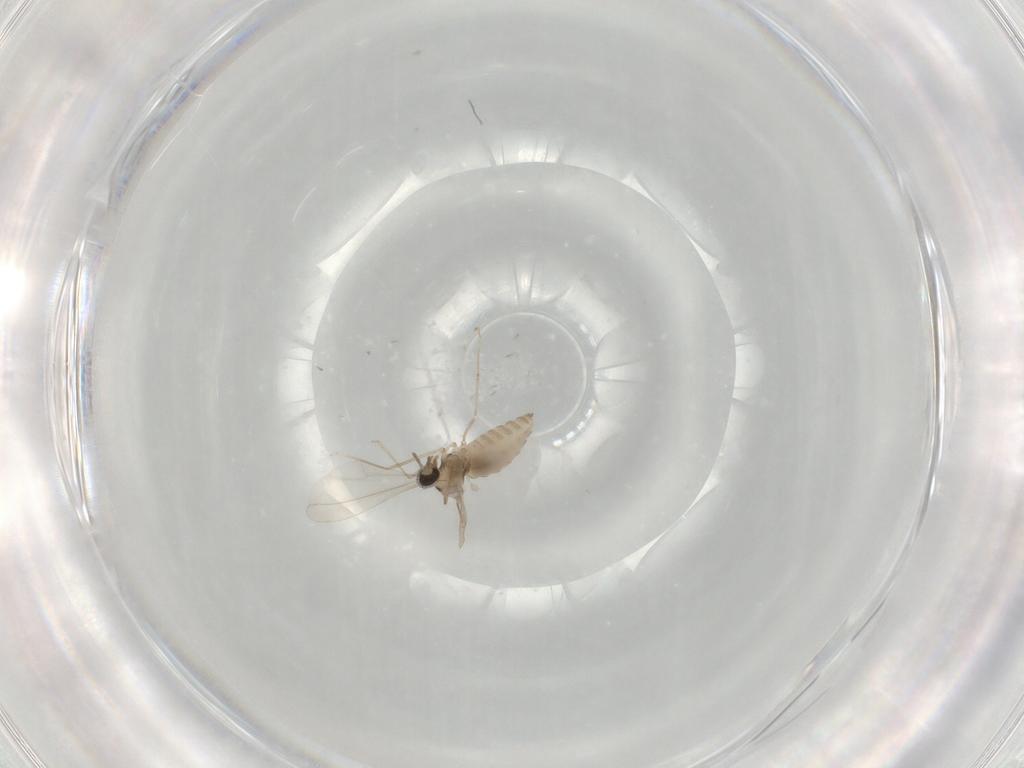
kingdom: Animalia
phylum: Arthropoda
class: Insecta
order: Diptera
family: Cecidomyiidae
